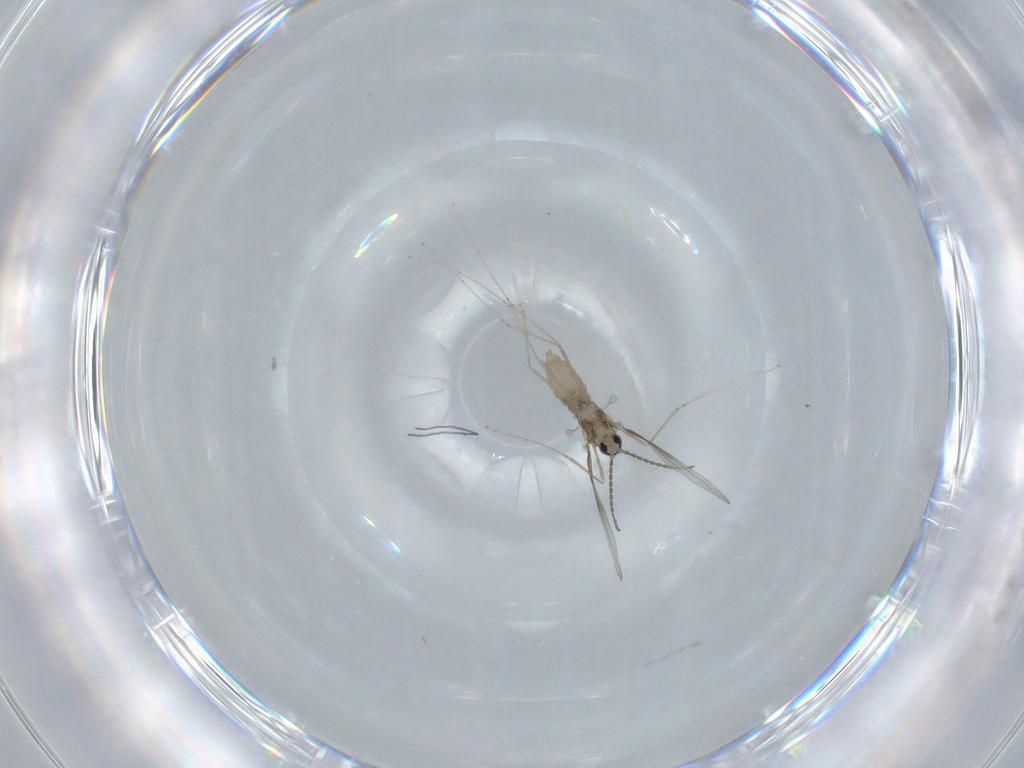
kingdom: Animalia
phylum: Arthropoda
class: Insecta
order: Diptera
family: Cecidomyiidae
